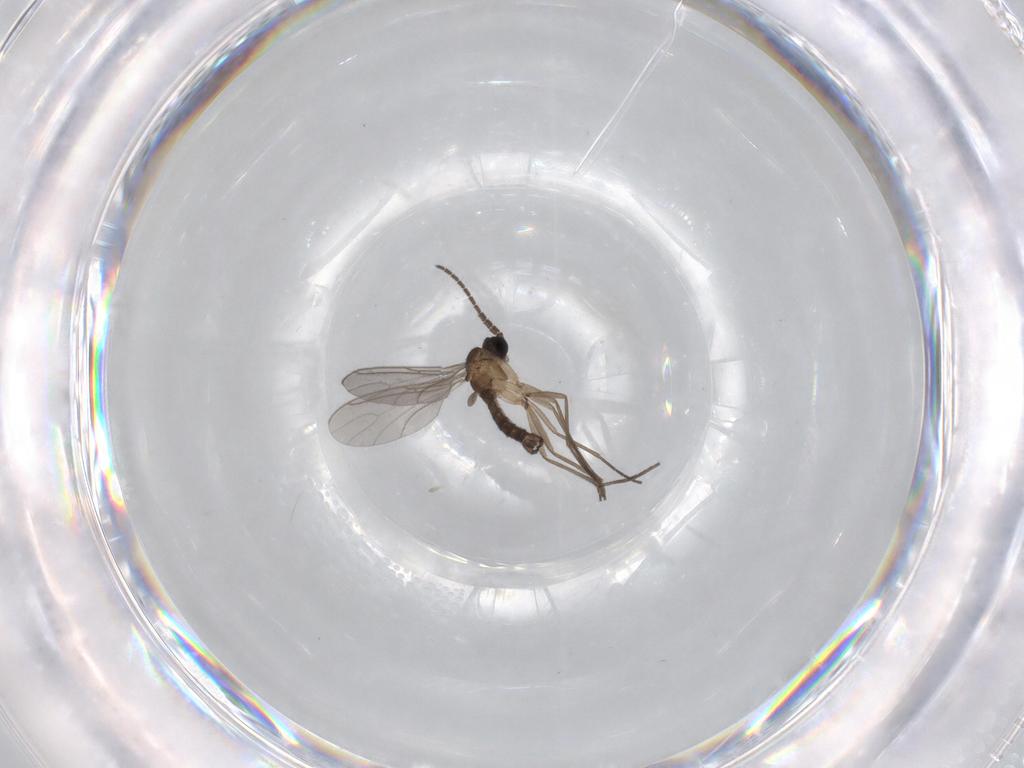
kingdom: Animalia
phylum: Arthropoda
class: Insecta
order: Diptera
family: Sciaridae
